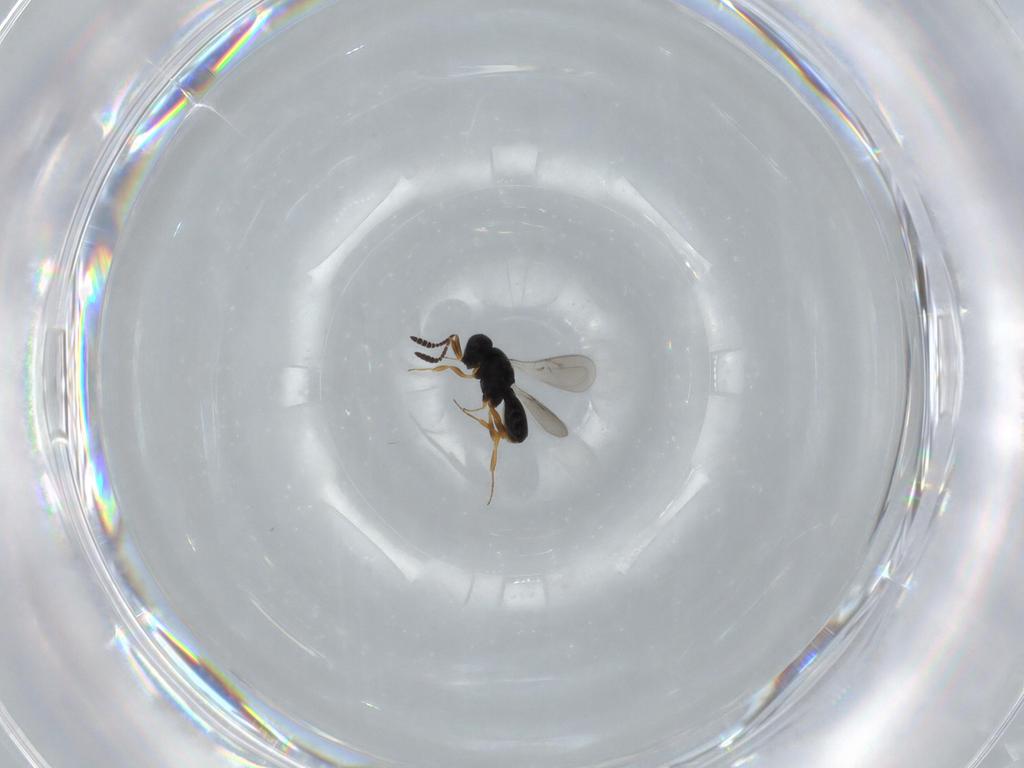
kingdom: Animalia
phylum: Arthropoda
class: Insecta
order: Hymenoptera
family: Scelionidae
